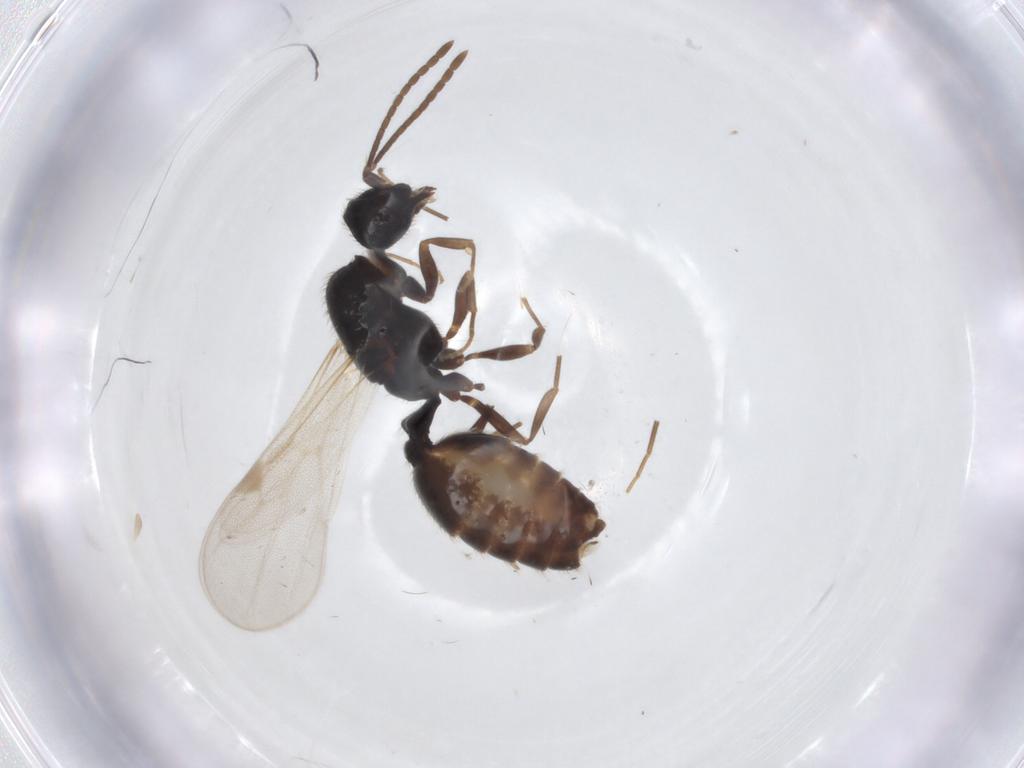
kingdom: Animalia
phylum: Arthropoda
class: Insecta
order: Hymenoptera
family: Formicidae
